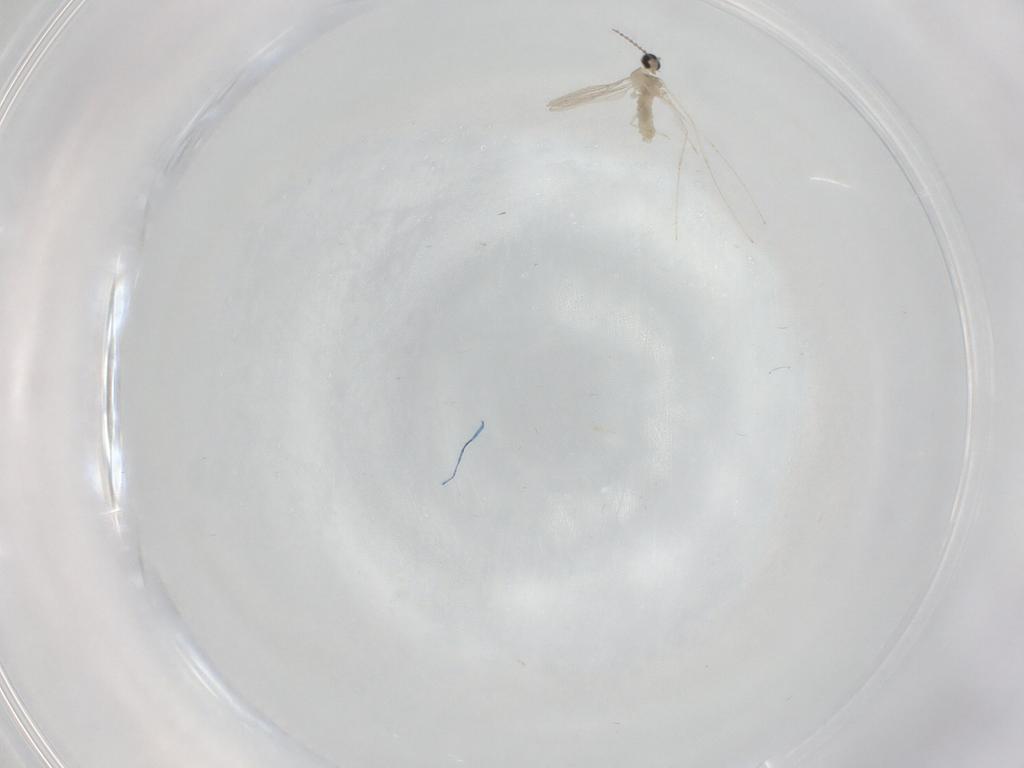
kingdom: Animalia
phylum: Arthropoda
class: Insecta
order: Diptera
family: Cecidomyiidae
